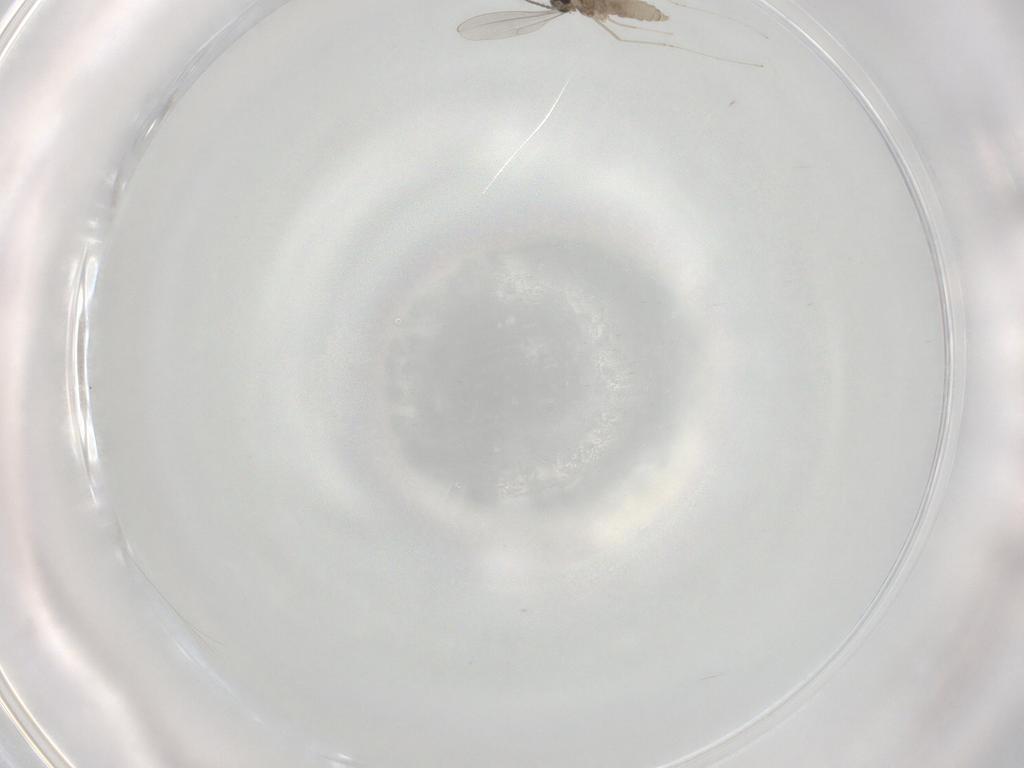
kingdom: Animalia
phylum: Arthropoda
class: Insecta
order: Diptera
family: Cecidomyiidae
